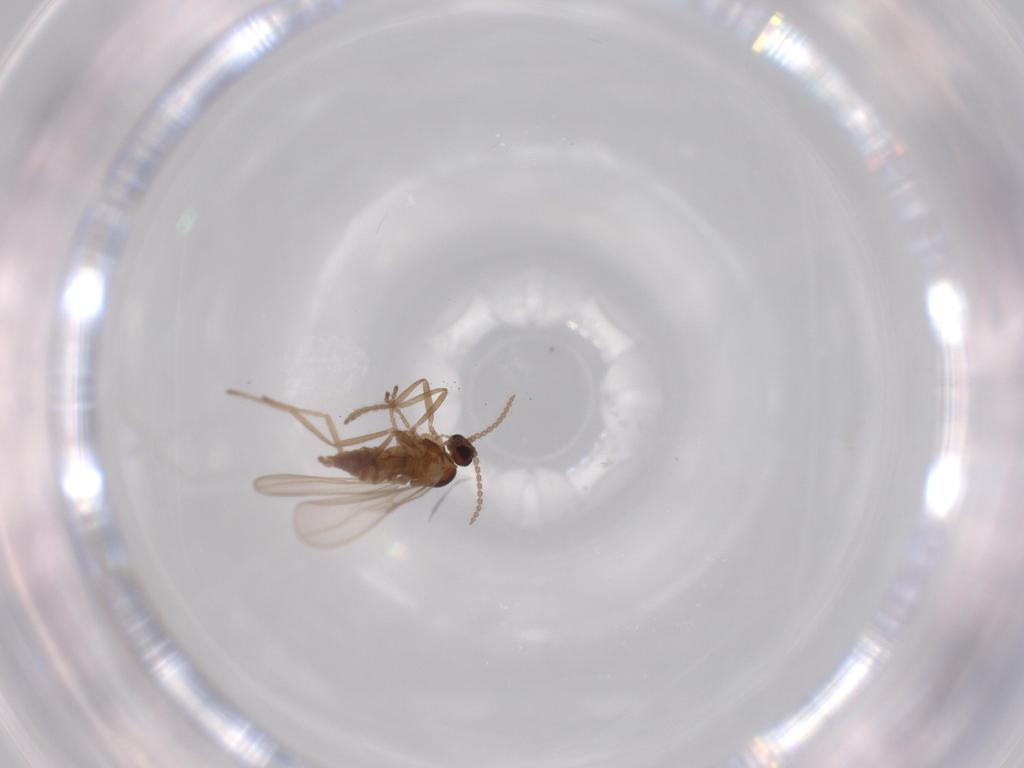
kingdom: Animalia
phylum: Arthropoda
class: Insecta
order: Diptera
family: Cecidomyiidae
